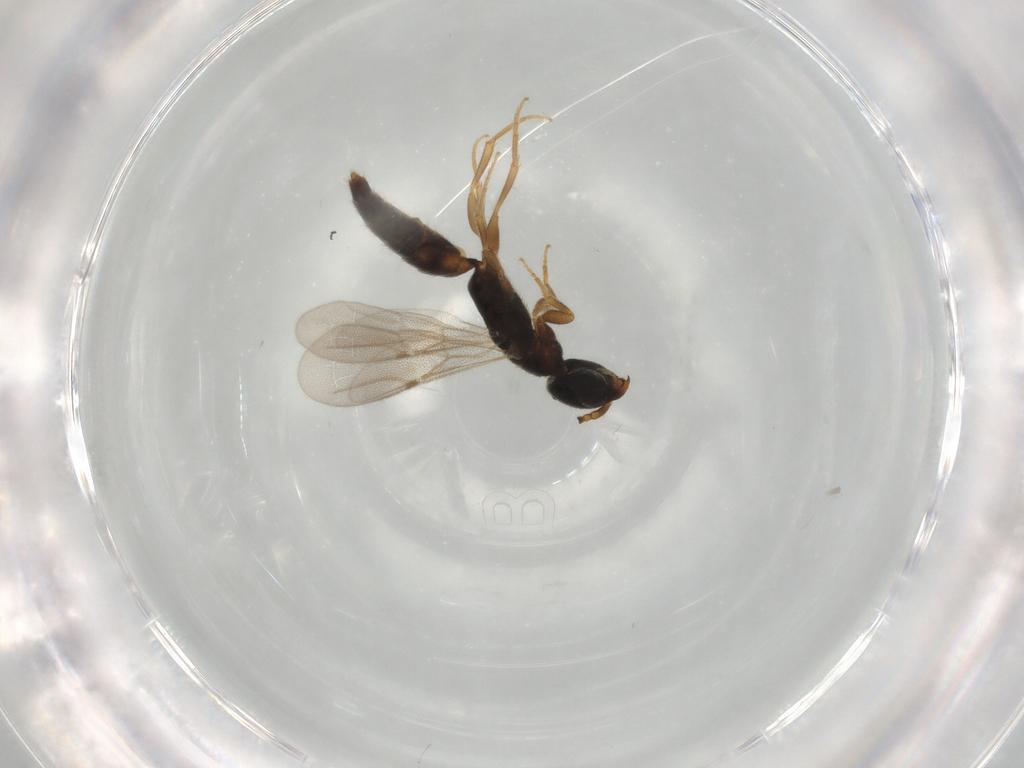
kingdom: Animalia
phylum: Arthropoda
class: Insecta
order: Hymenoptera
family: Bethylidae
